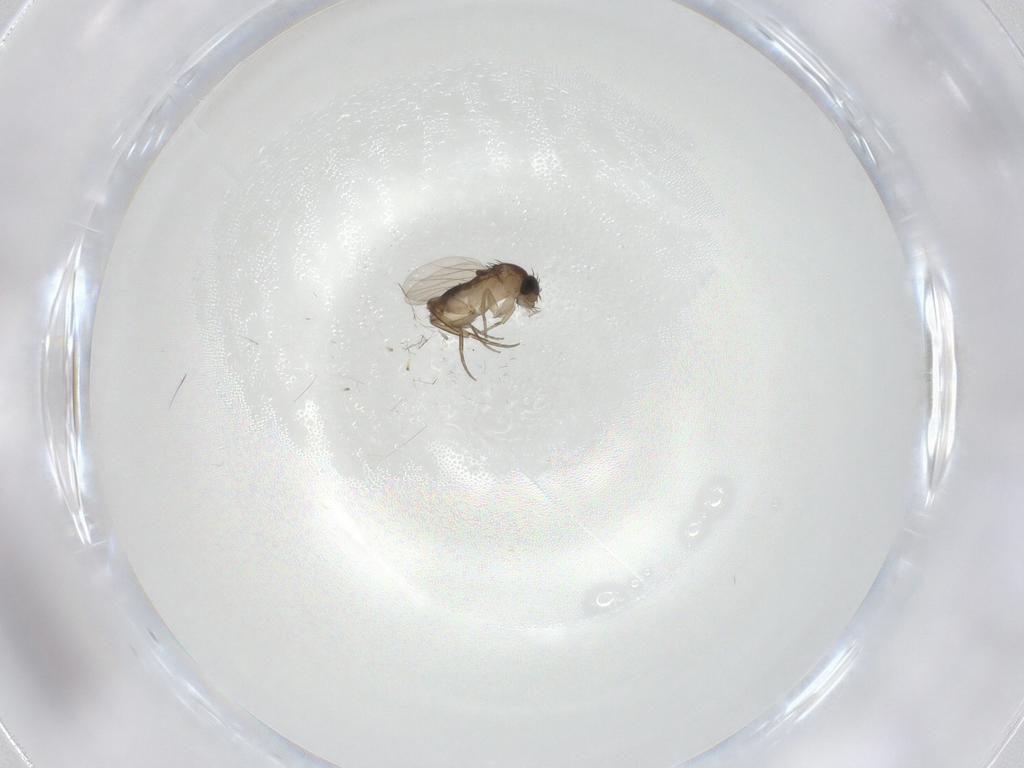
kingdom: Animalia
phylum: Arthropoda
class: Insecta
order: Diptera
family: Phoridae
